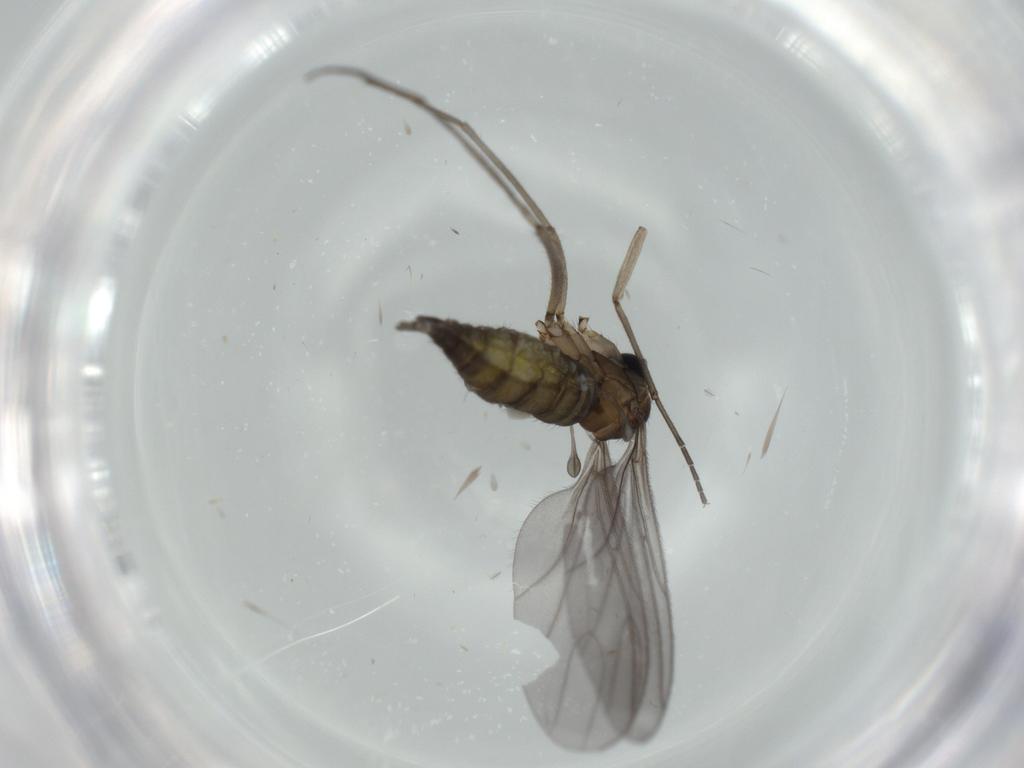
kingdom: Animalia
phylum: Arthropoda
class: Insecta
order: Diptera
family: Sciaridae
